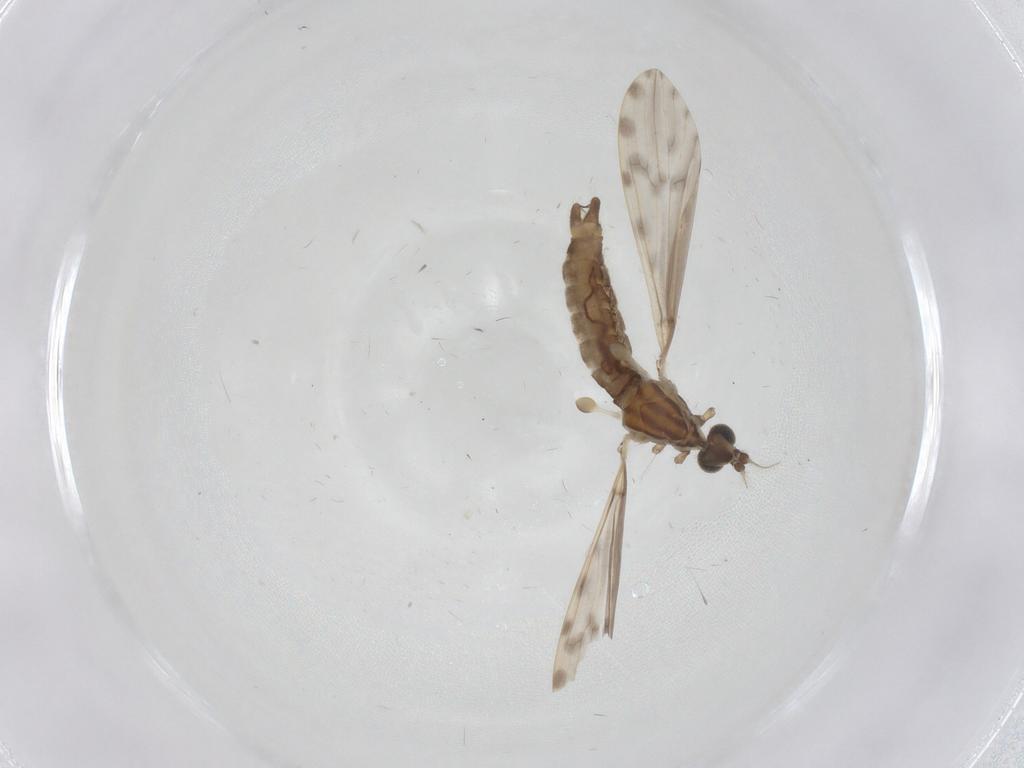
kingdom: Animalia
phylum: Arthropoda
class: Insecta
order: Diptera
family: Limoniidae
